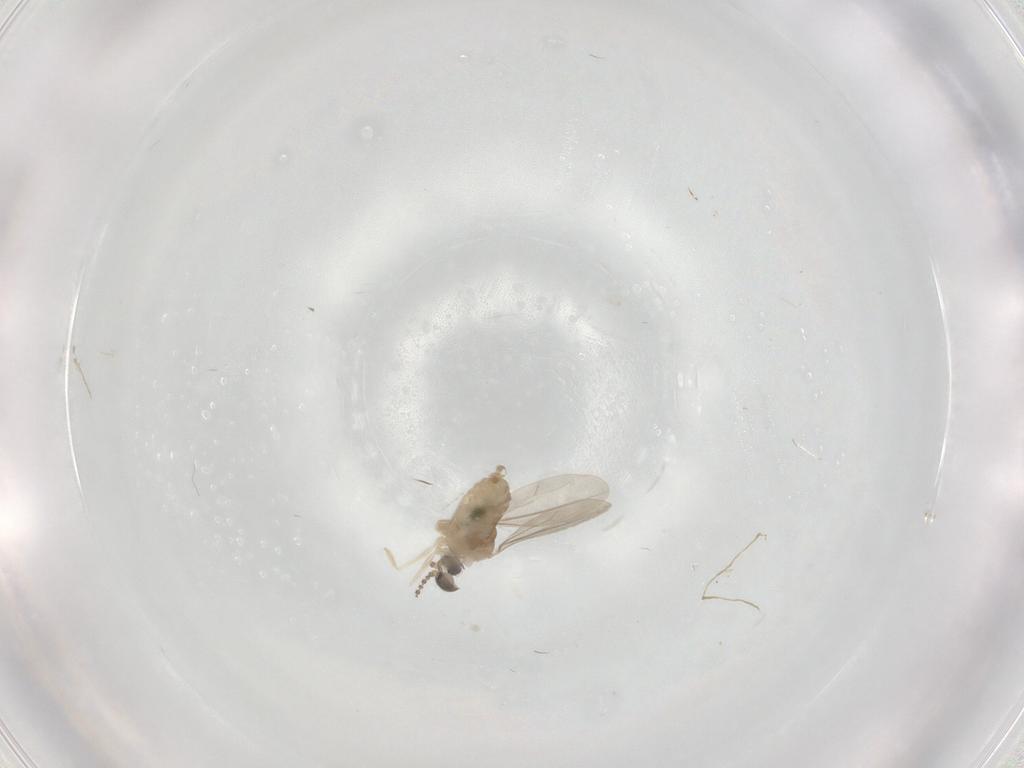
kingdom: Animalia
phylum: Arthropoda
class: Insecta
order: Diptera
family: Cecidomyiidae
